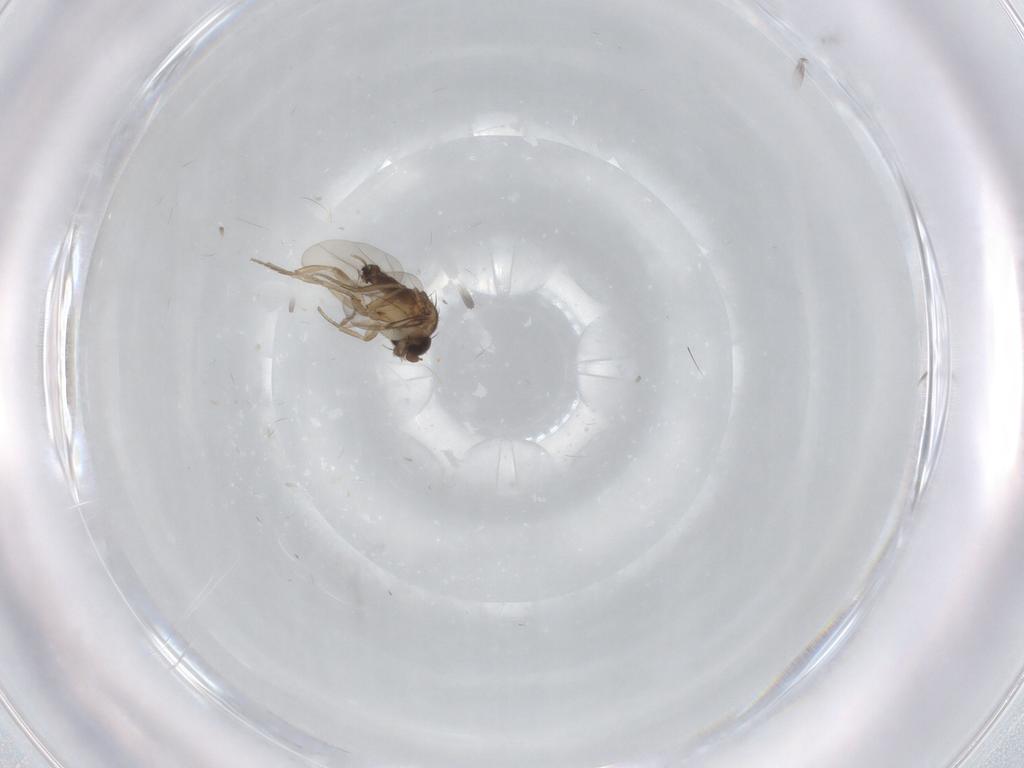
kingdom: Animalia
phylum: Arthropoda
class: Insecta
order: Diptera
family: Phoridae
